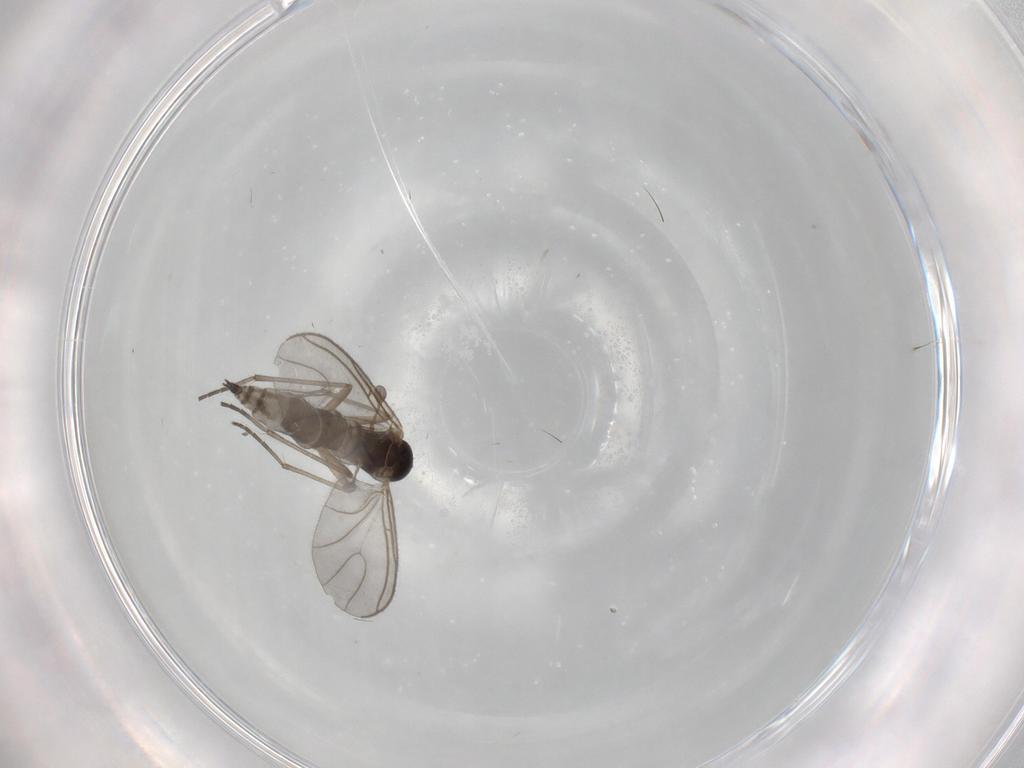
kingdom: Animalia
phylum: Arthropoda
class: Insecta
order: Diptera
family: Sciaridae
